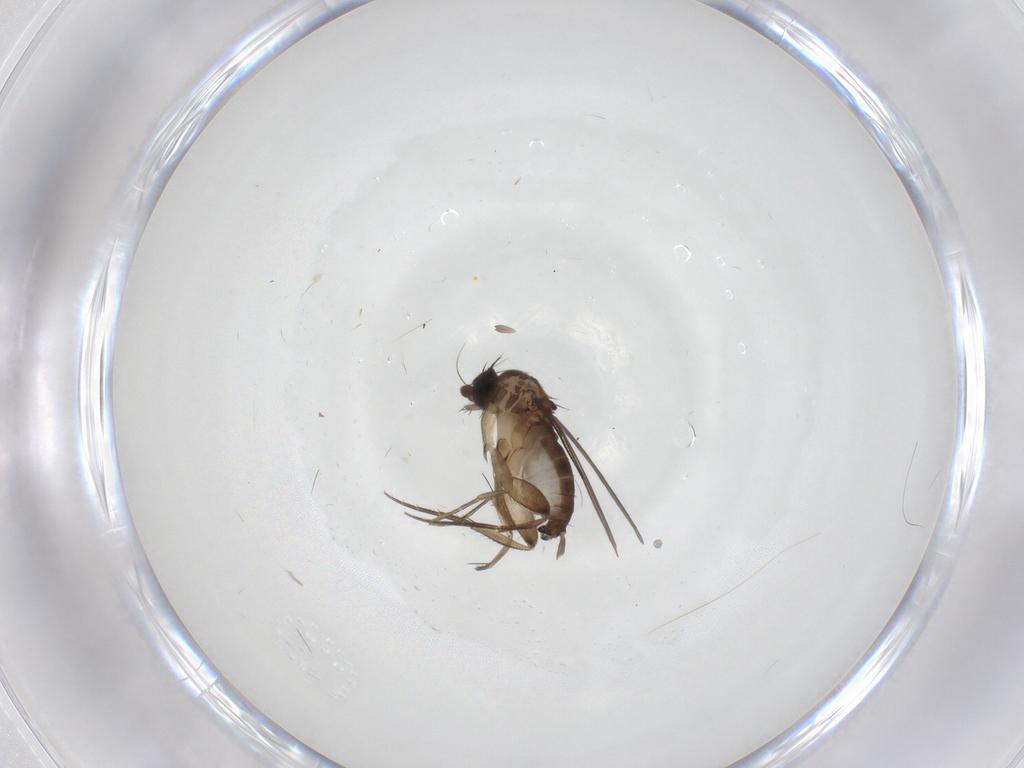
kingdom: Animalia
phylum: Arthropoda
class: Insecta
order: Diptera
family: Phoridae
